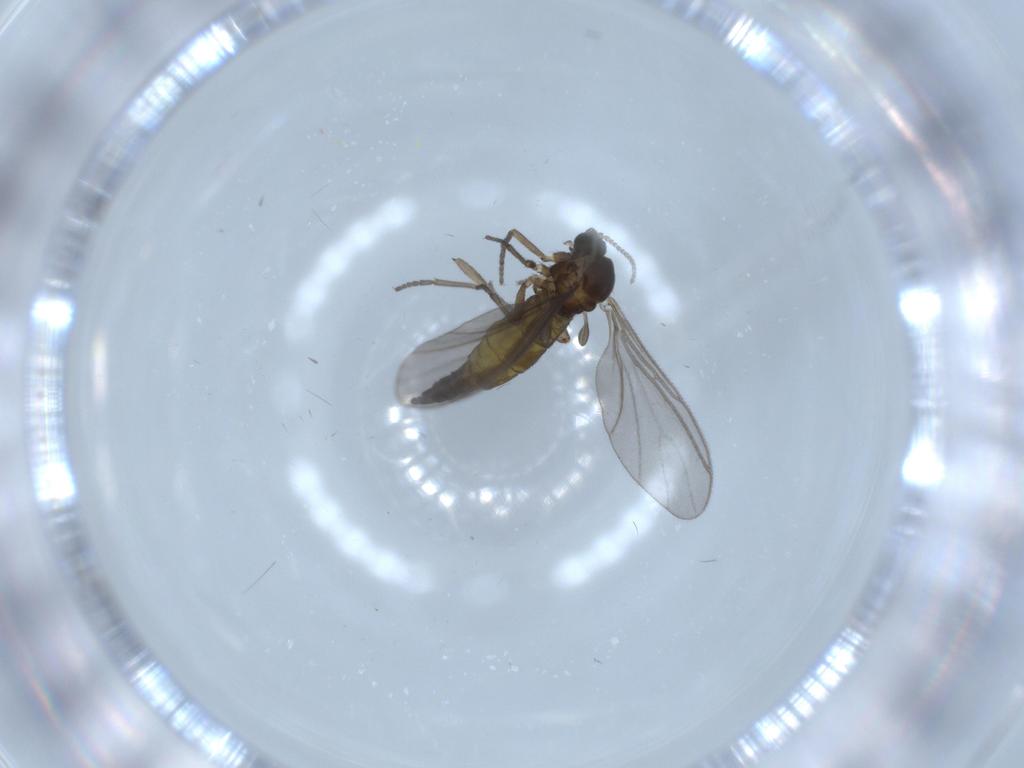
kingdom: Animalia
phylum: Arthropoda
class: Insecta
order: Diptera
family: Sciaridae
